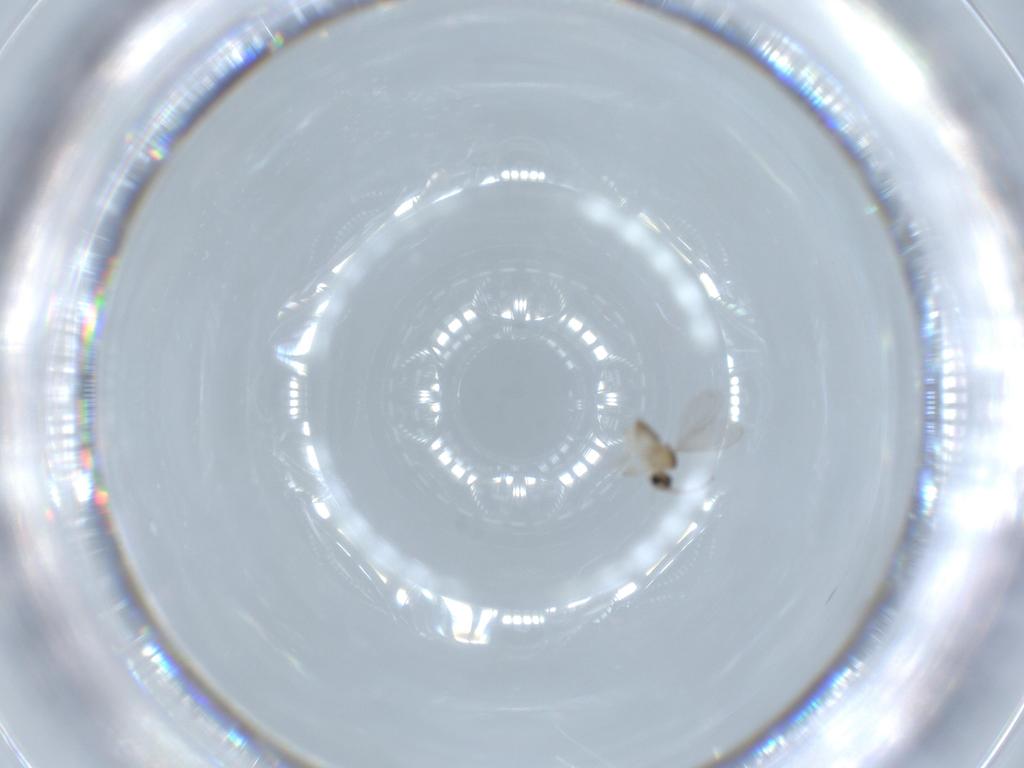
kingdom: Animalia
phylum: Arthropoda
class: Insecta
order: Diptera
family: Cecidomyiidae
